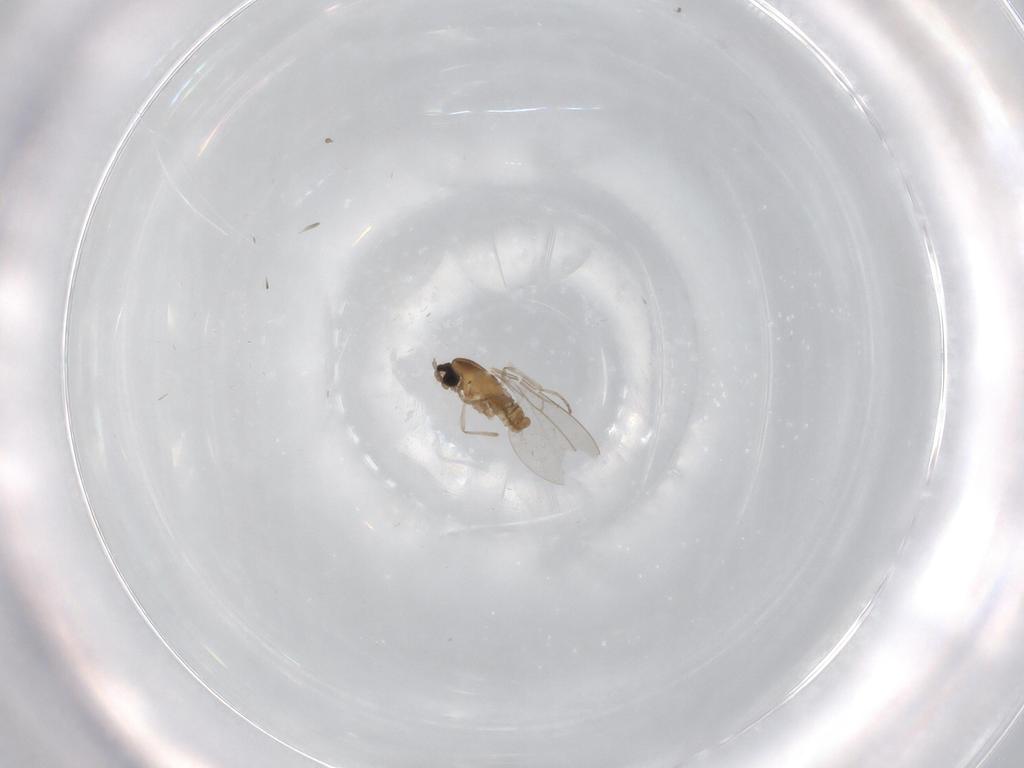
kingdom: Animalia
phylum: Arthropoda
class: Insecta
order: Diptera
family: Cecidomyiidae
